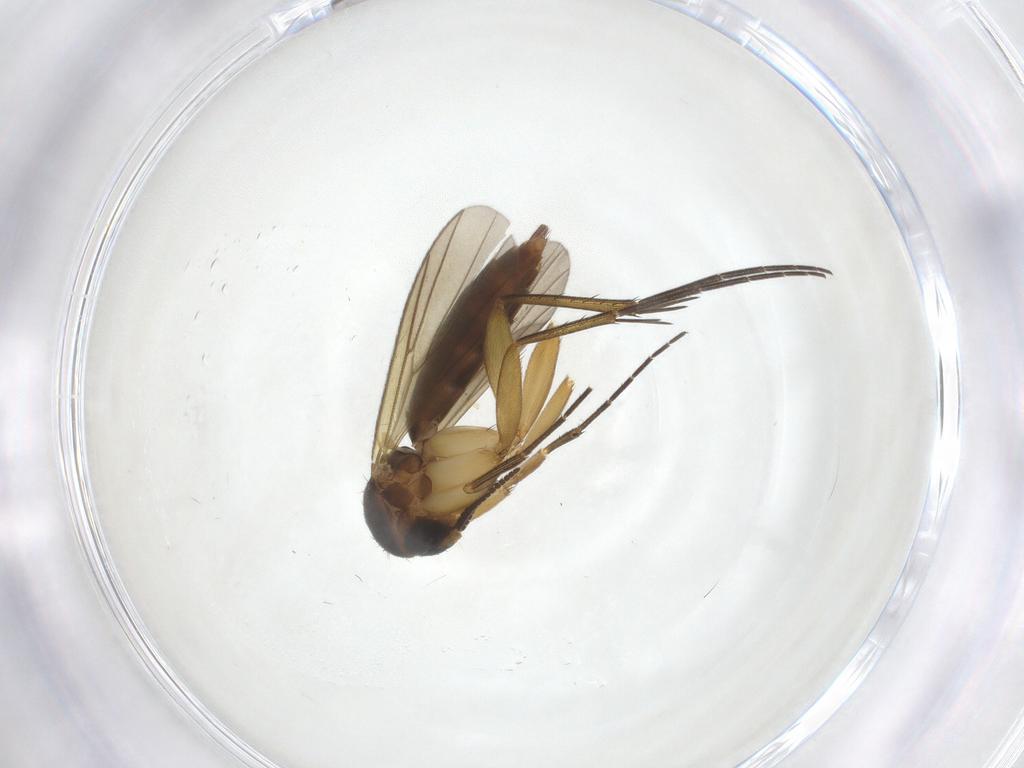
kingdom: Animalia
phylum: Arthropoda
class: Insecta
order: Diptera
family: Mycetophilidae
